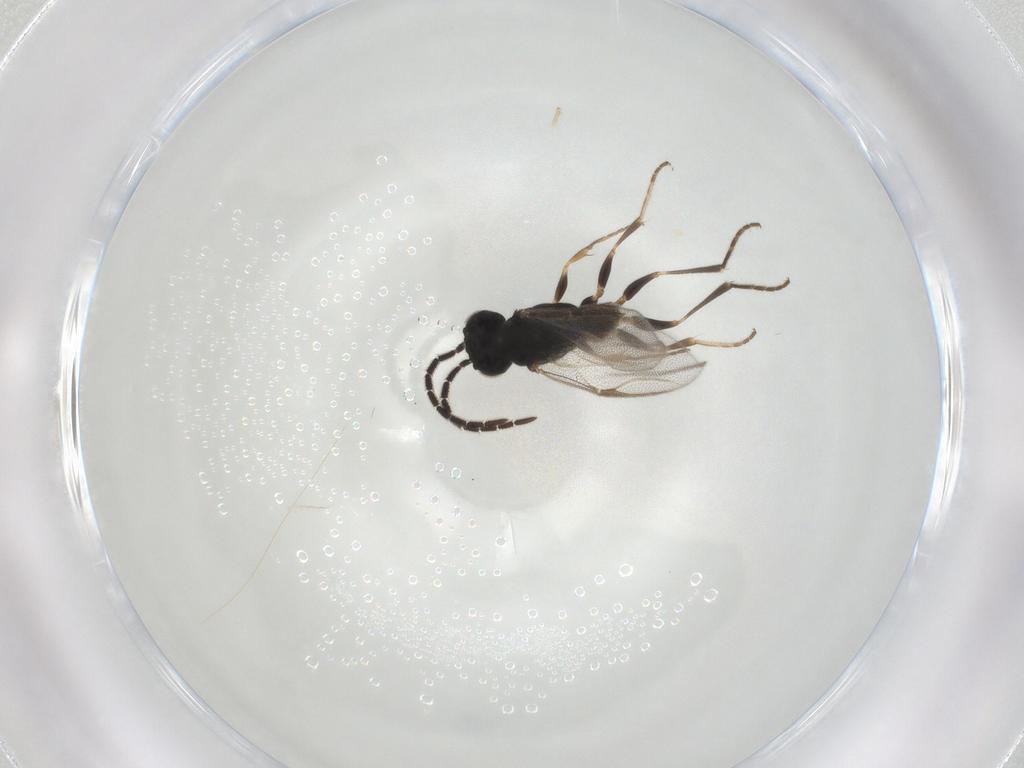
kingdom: Animalia
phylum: Arthropoda
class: Insecta
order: Hymenoptera
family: Dryinidae
